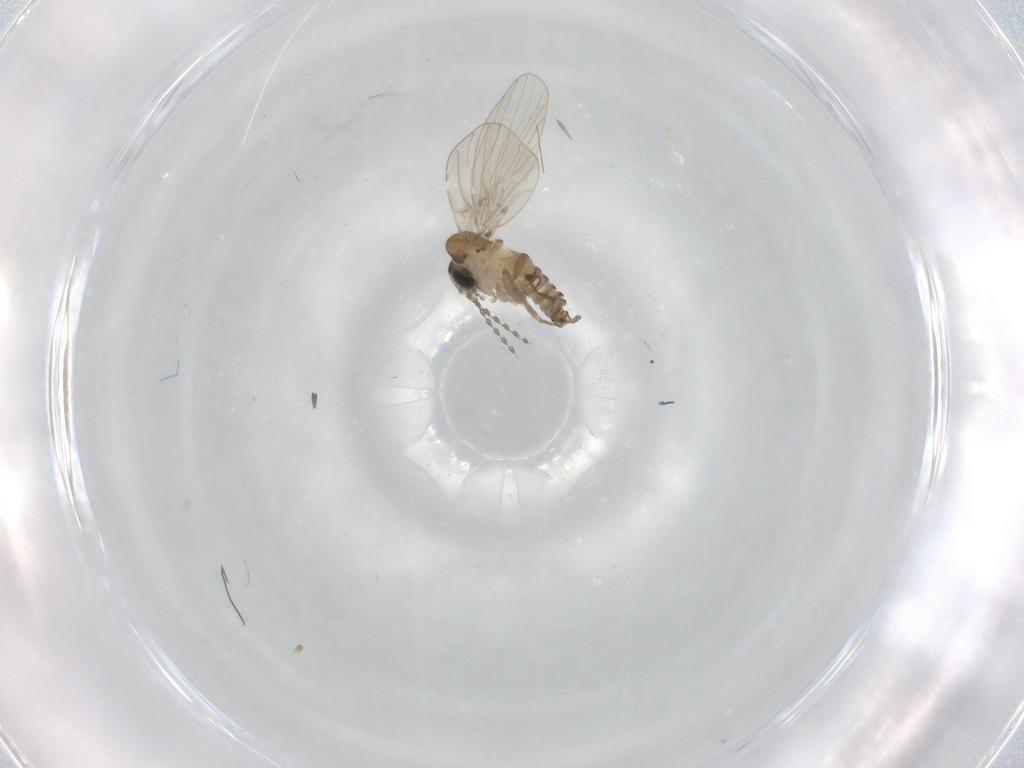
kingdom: Animalia
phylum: Arthropoda
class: Insecta
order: Diptera
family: Psychodidae
